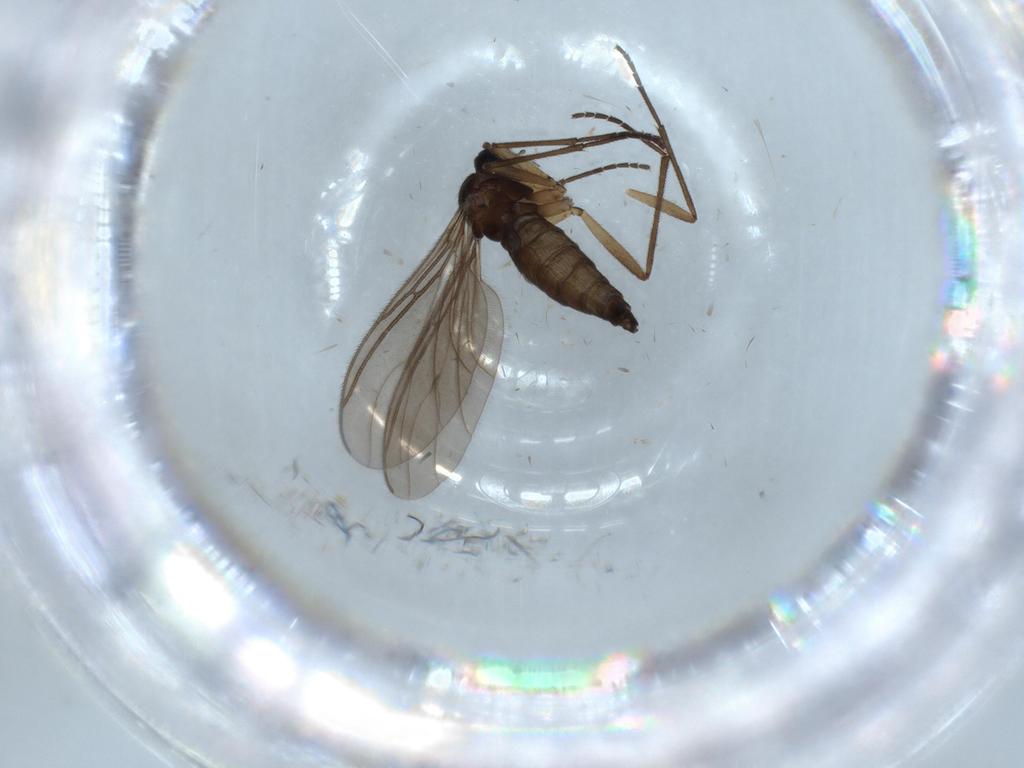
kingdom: Animalia
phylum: Arthropoda
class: Insecta
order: Diptera
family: Sciaridae
